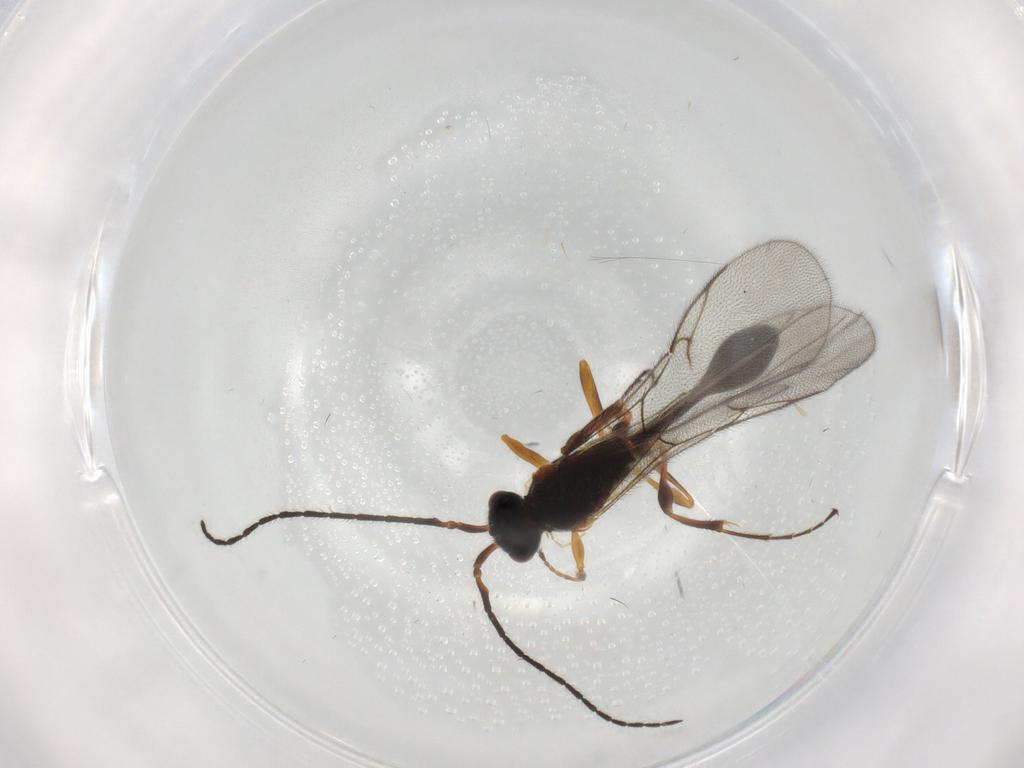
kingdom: Animalia
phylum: Arthropoda
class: Insecta
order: Hymenoptera
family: Diapriidae
